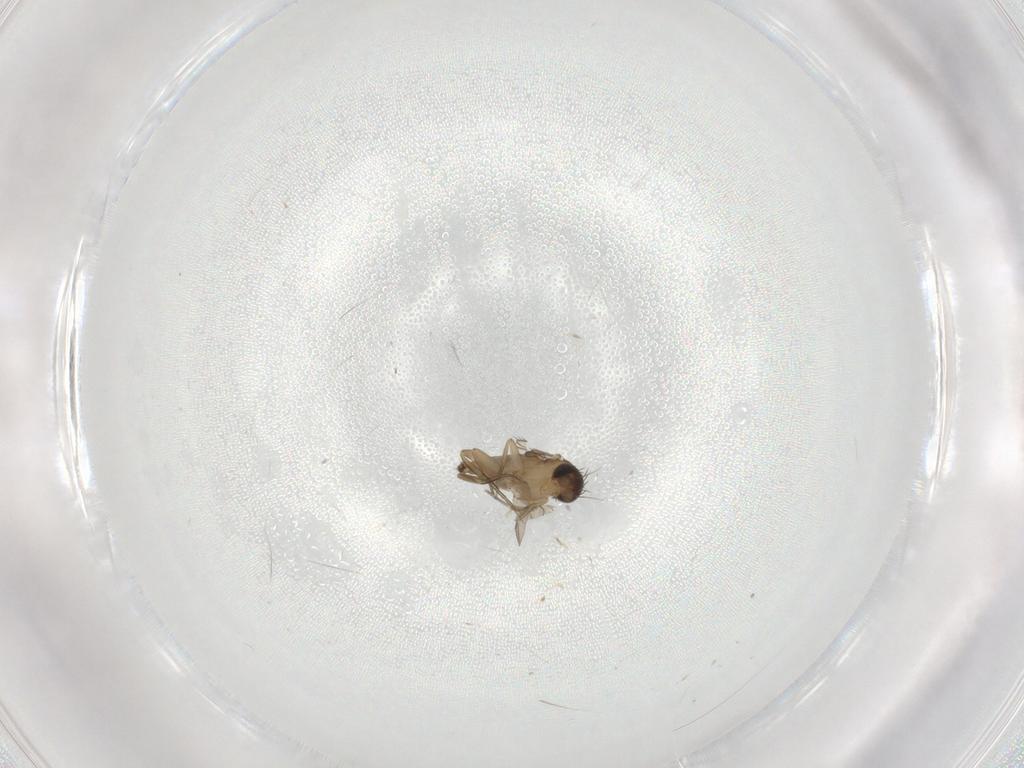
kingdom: Animalia
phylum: Arthropoda
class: Insecta
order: Diptera
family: Phoridae
